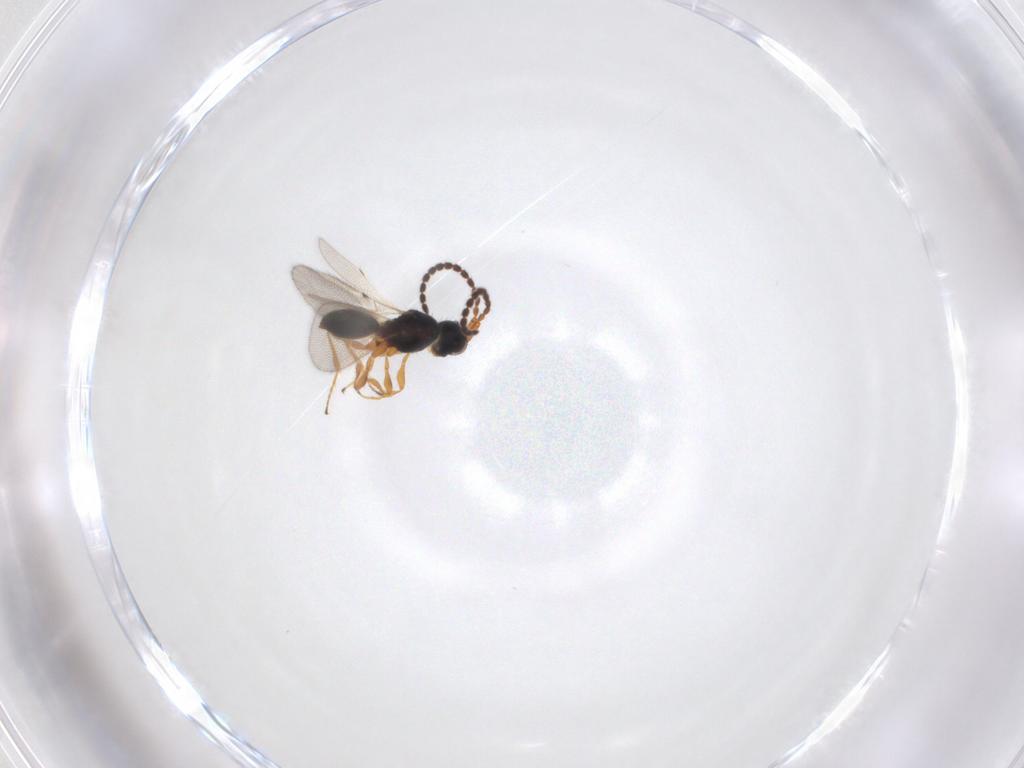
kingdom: Animalia
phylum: Arthropoda
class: Insecta
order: Hymenoptera
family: Diapriidae
